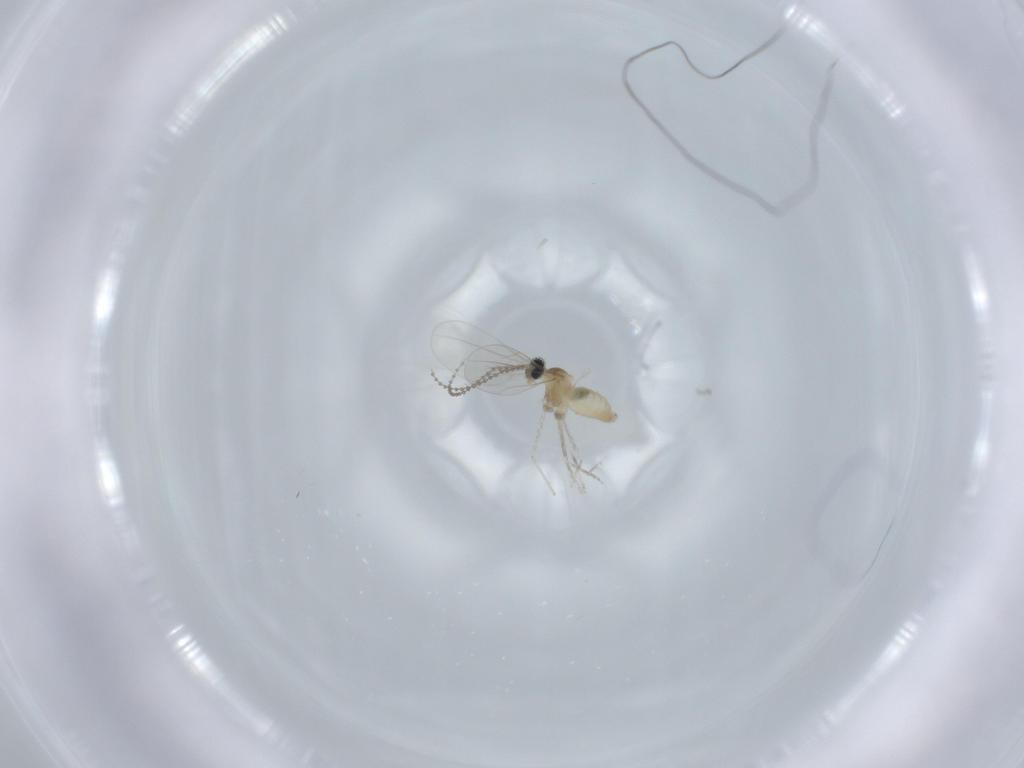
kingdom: Animalia
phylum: Arthropoda
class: Insecta
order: Diptera
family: Cecidomyiidae
